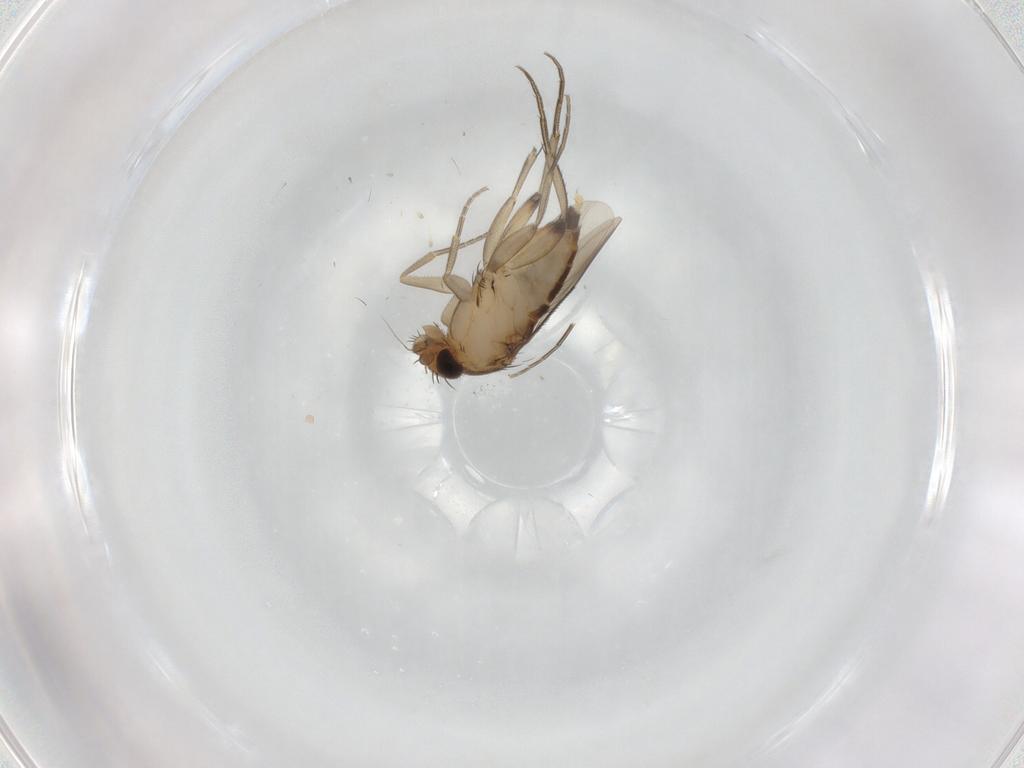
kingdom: Animalia
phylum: Arthropoda
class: Insecta
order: Diptera
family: Phoridae
